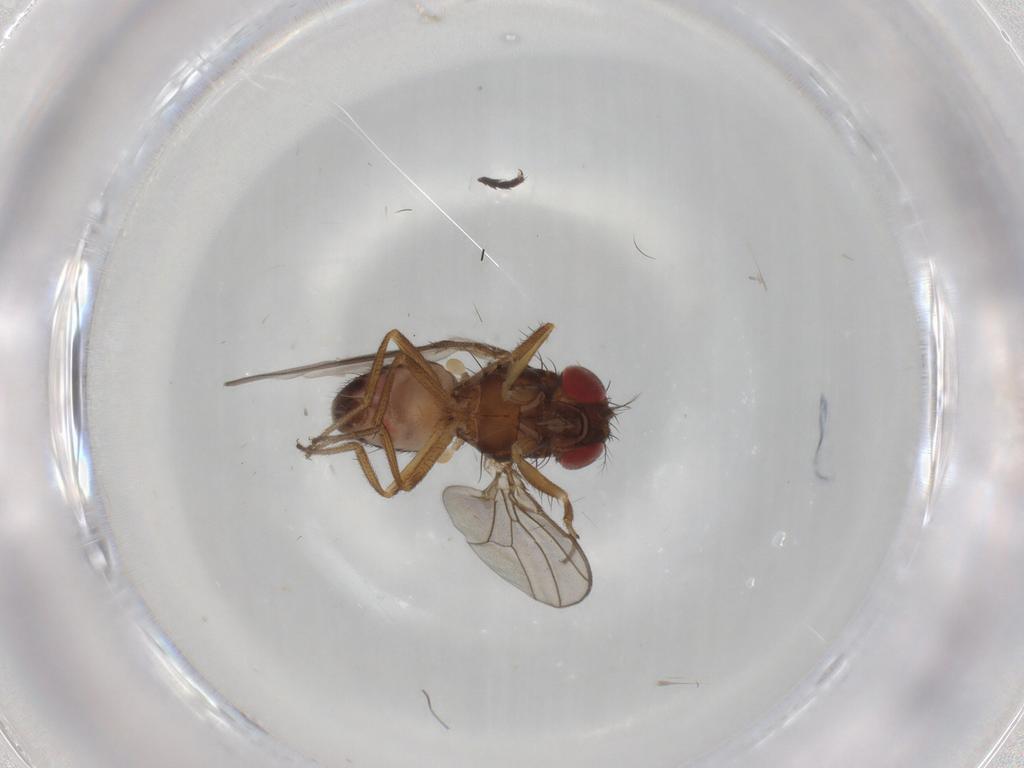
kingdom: Animalia
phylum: Arthropoda
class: Insecta
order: Diptera
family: Drosophilidae
